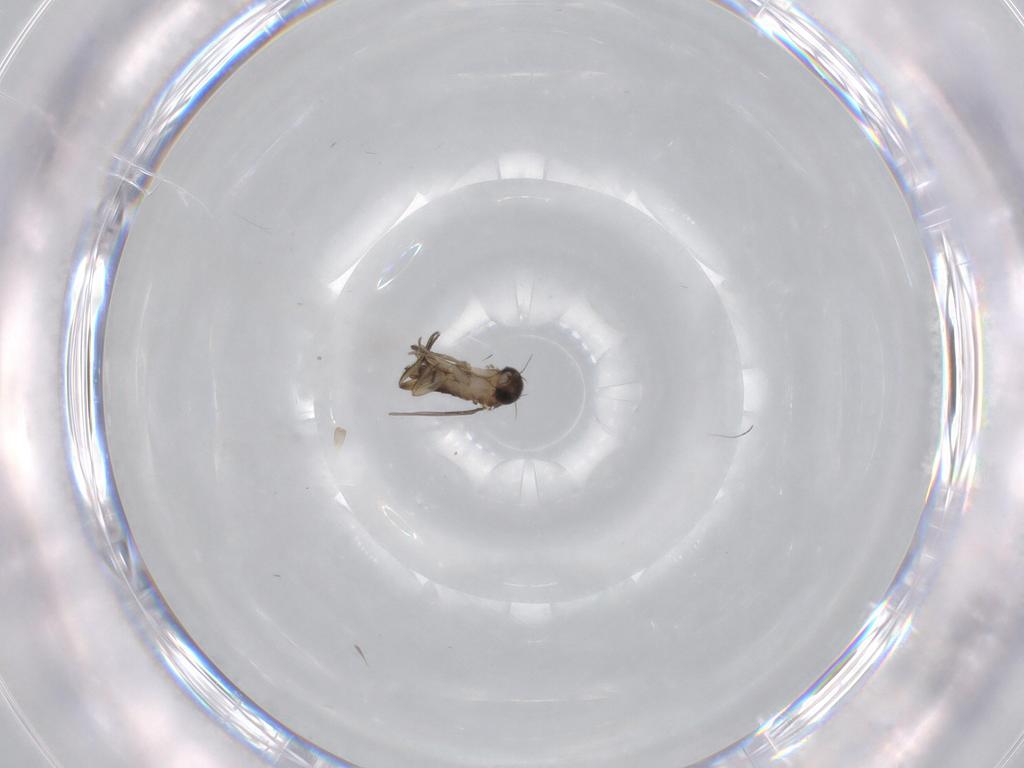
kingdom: Animalia
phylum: Arthropoda
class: Insecta
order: Diptera
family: Phoridae
